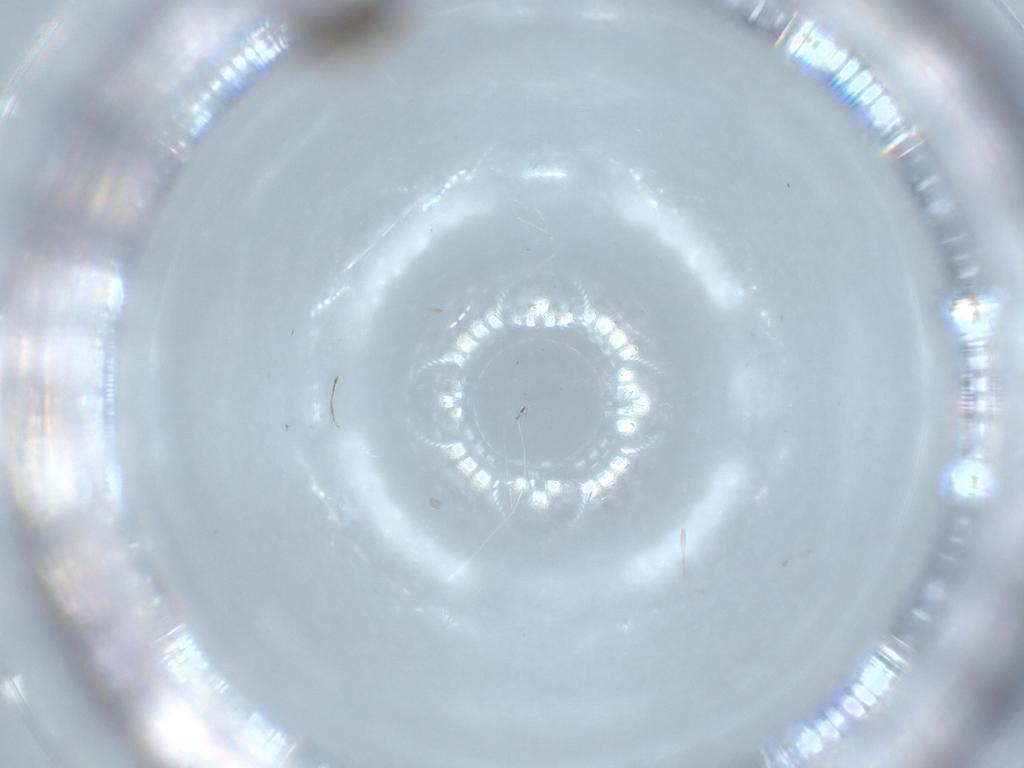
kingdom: Animalia
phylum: Arthropoda
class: Insecta
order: Diptera
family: Ceratopogonidae
